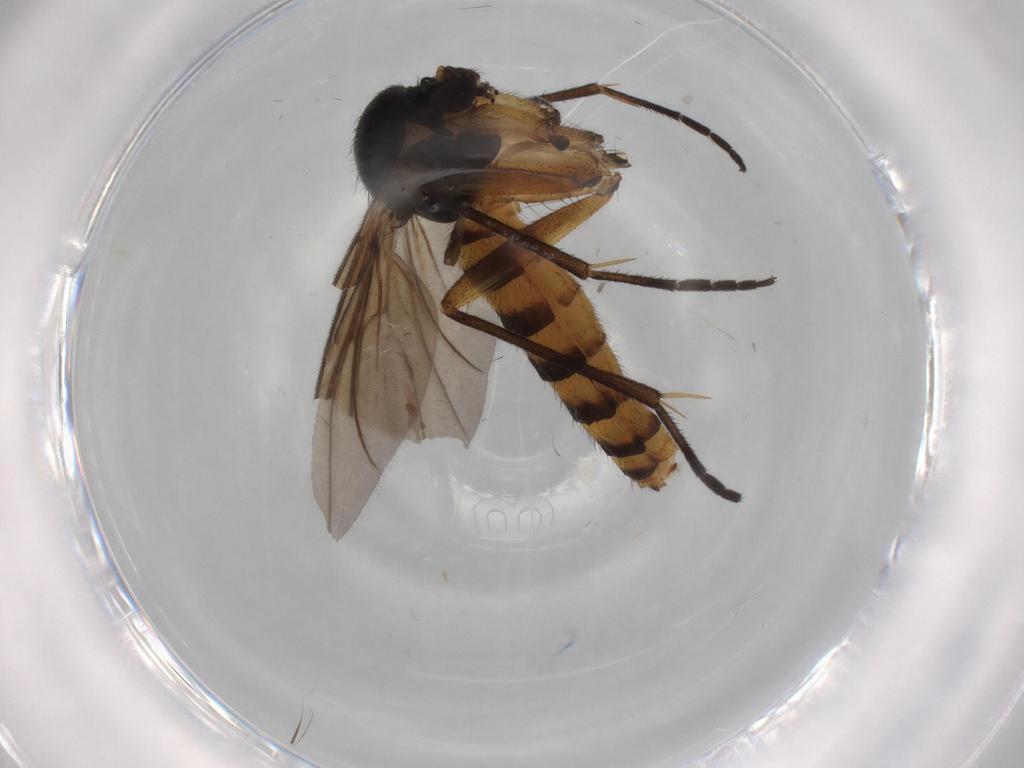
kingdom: Animalia
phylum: Arthropoda
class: Insecta
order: Diptera
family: Mycetophilidae
